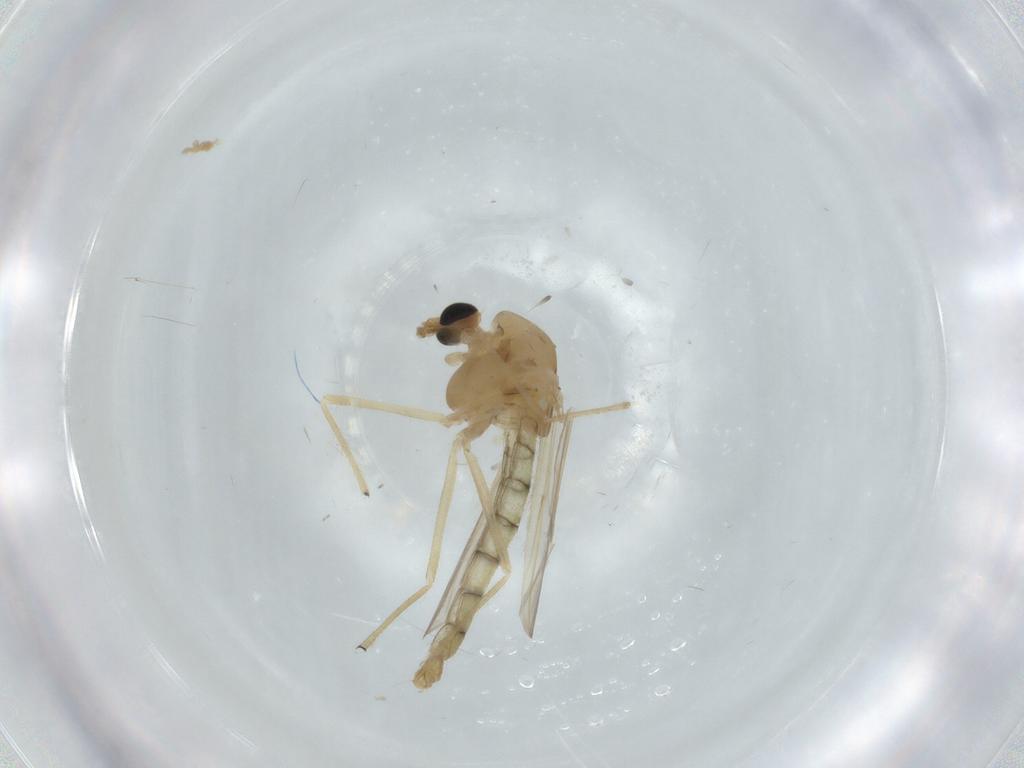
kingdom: Animalia
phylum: Arthropoda
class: Insecta
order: Diptera
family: Chironomidae
